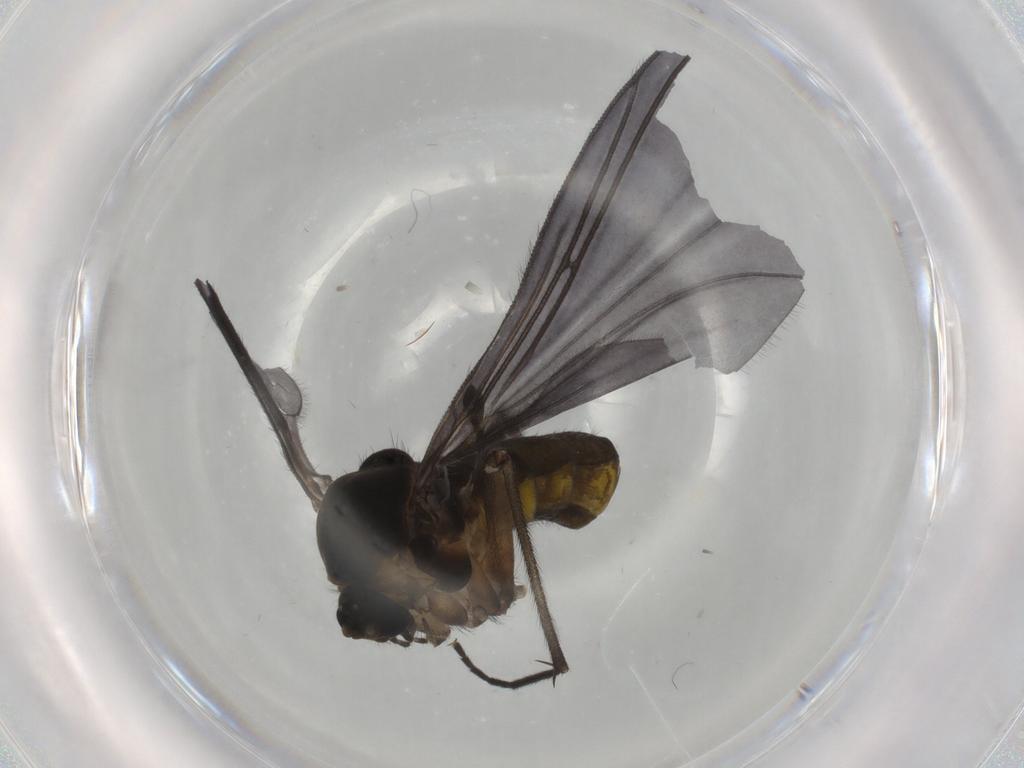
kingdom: Animalia
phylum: Arthropoda
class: Insecta
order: Diptera
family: Sciaridae
